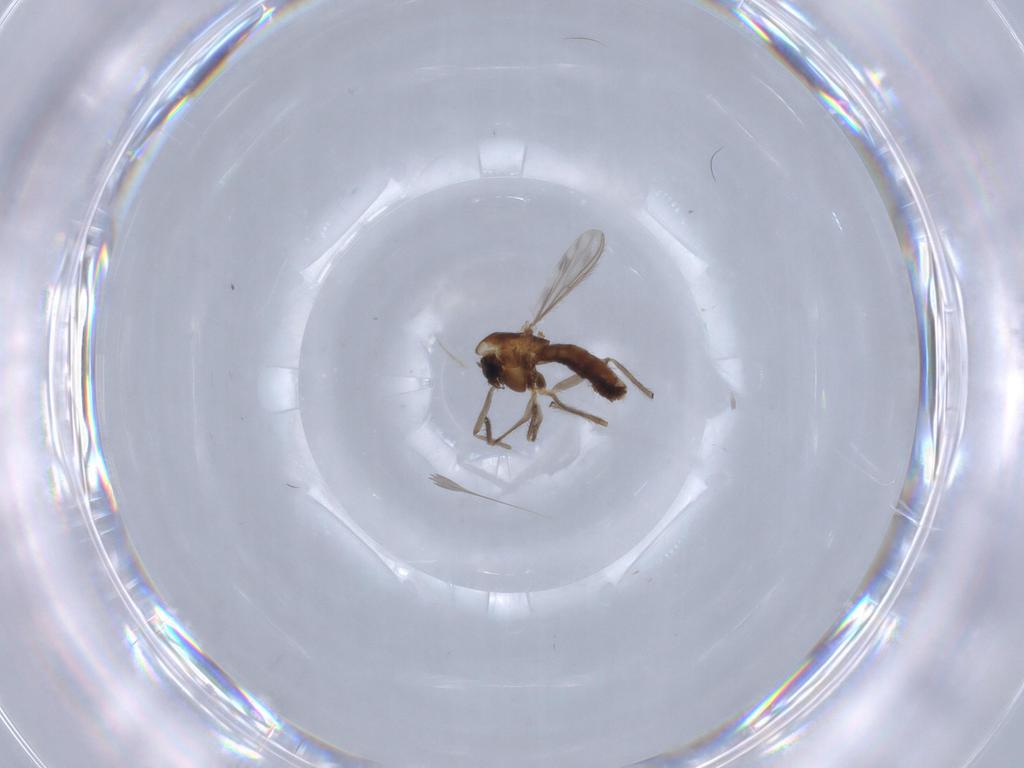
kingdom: Animalia
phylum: Arthropoda
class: Insecta
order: Diptera
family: Chironomidae
